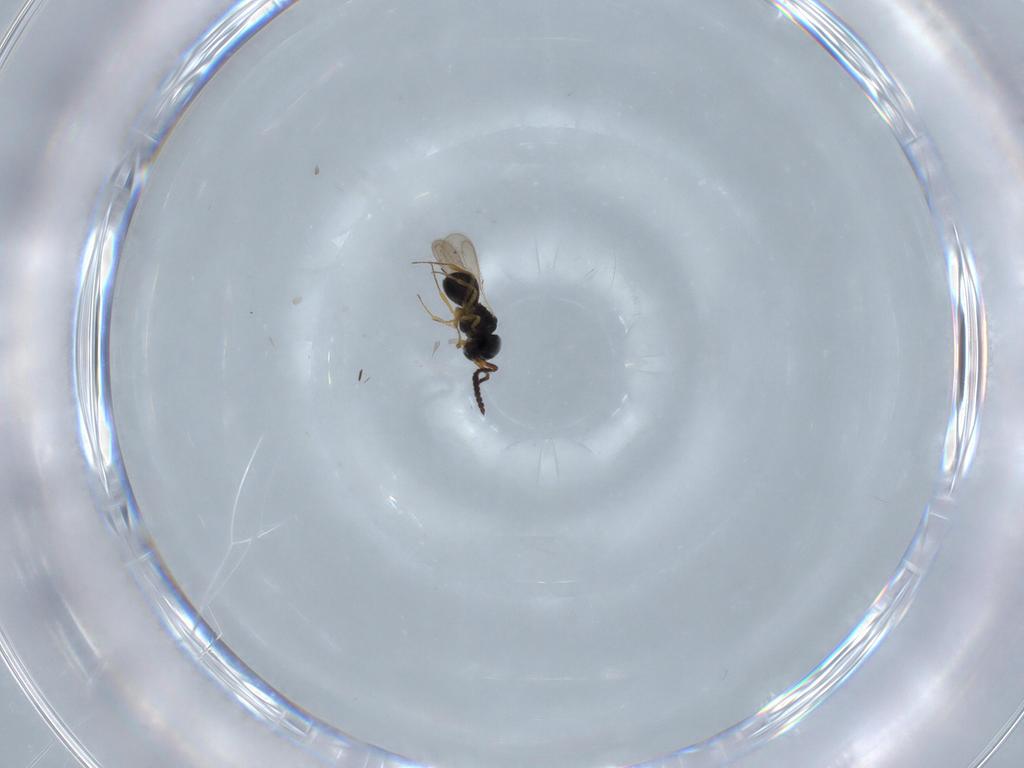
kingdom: Animalia
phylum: Arthropoda
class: Insecta
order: Hymenoptera
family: Scelionidae
